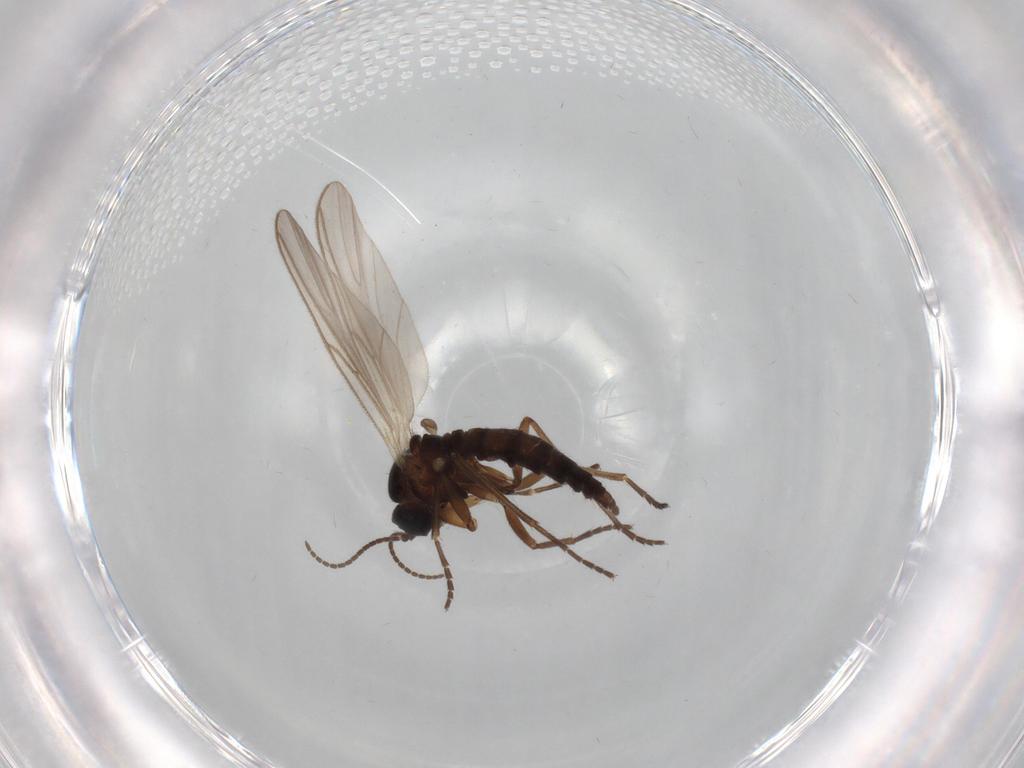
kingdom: Animalia
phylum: Arthropoda
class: Insecta
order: Diptera
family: Sciaridae
